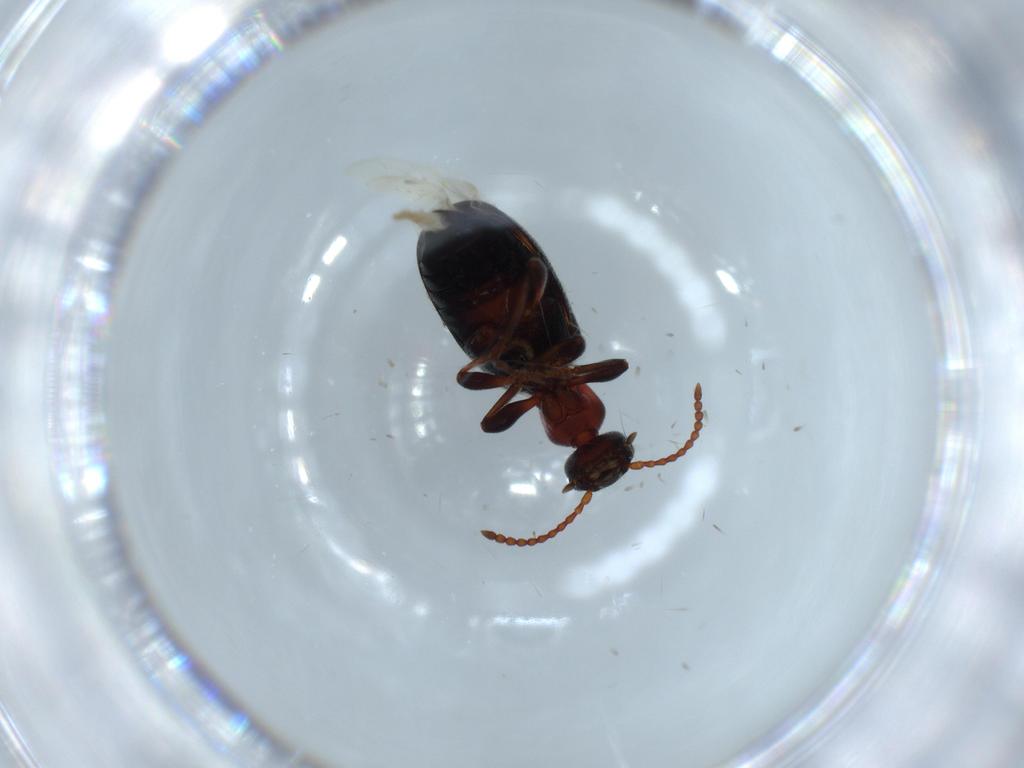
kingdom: Animalia
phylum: Arthropoda
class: Insecta
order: Coleoptera
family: Anthicidae
